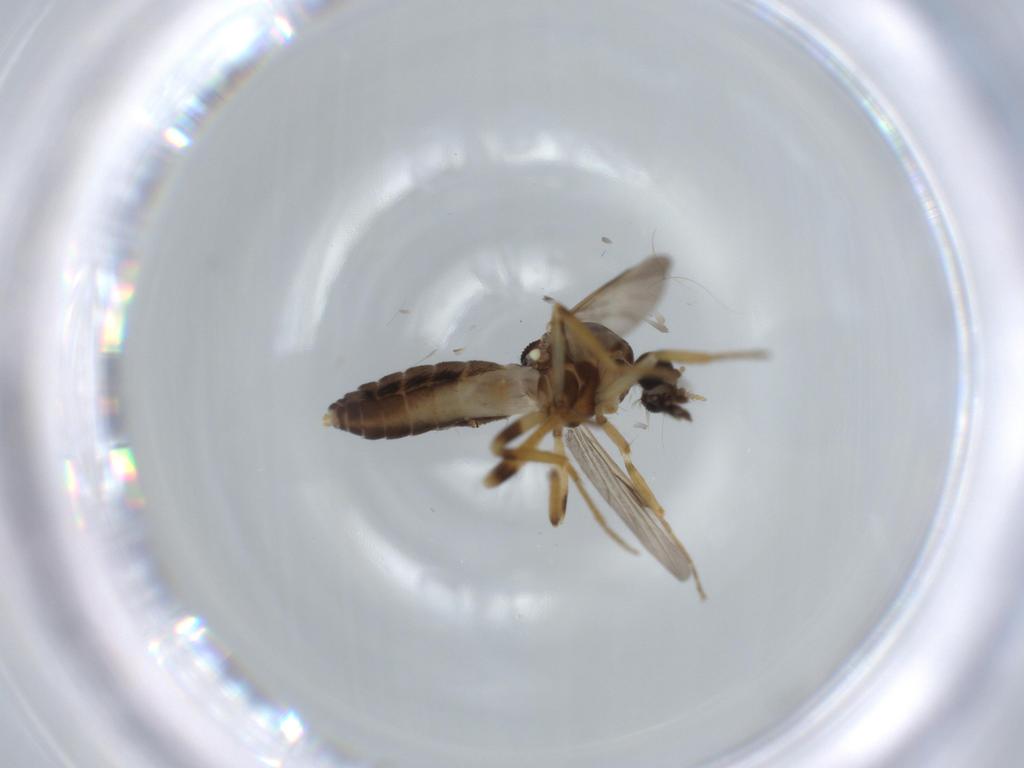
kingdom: Animalia
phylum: Arthropoda
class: Insecta
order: Diptera
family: Ceratopogonidae
